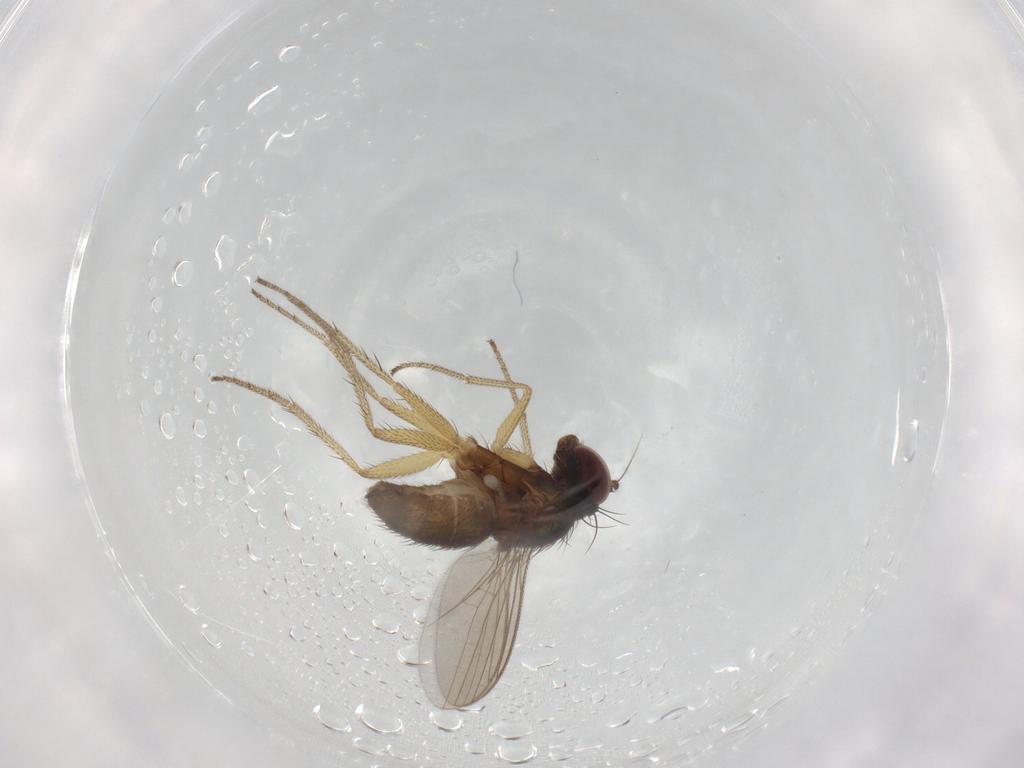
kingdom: Animalia
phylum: Arthropoda
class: Insecta
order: Diptera
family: Dolichopodidae
